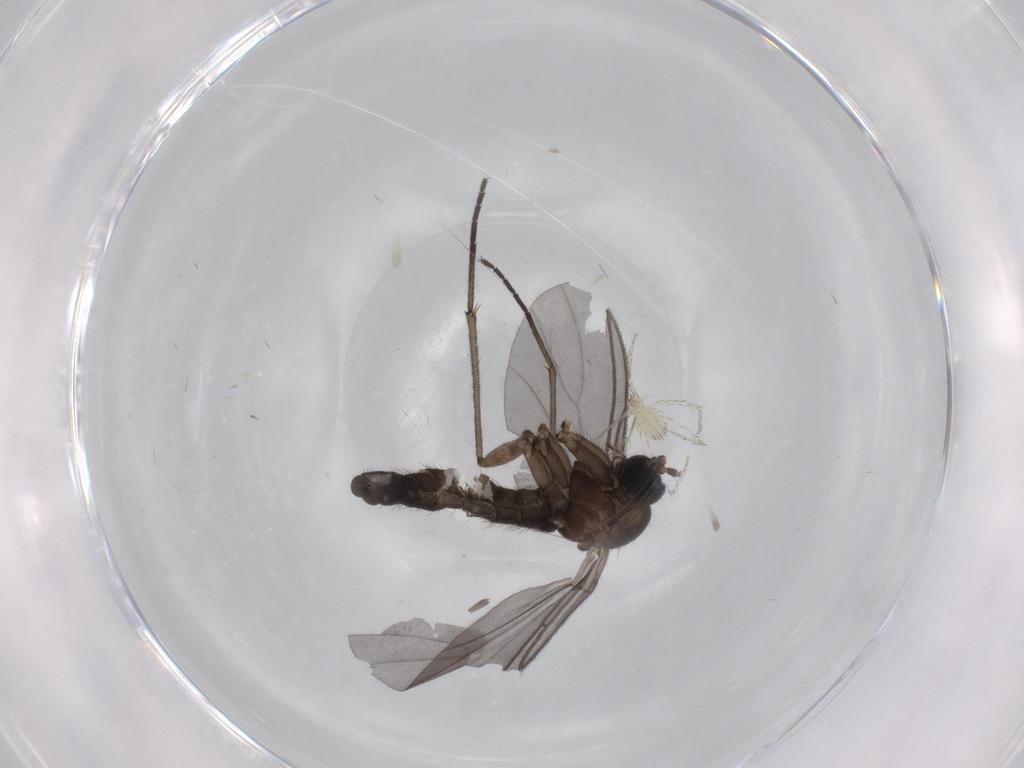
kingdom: Animalia
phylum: Arthropoda
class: Insecta
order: Diptera
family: Sciaridae
